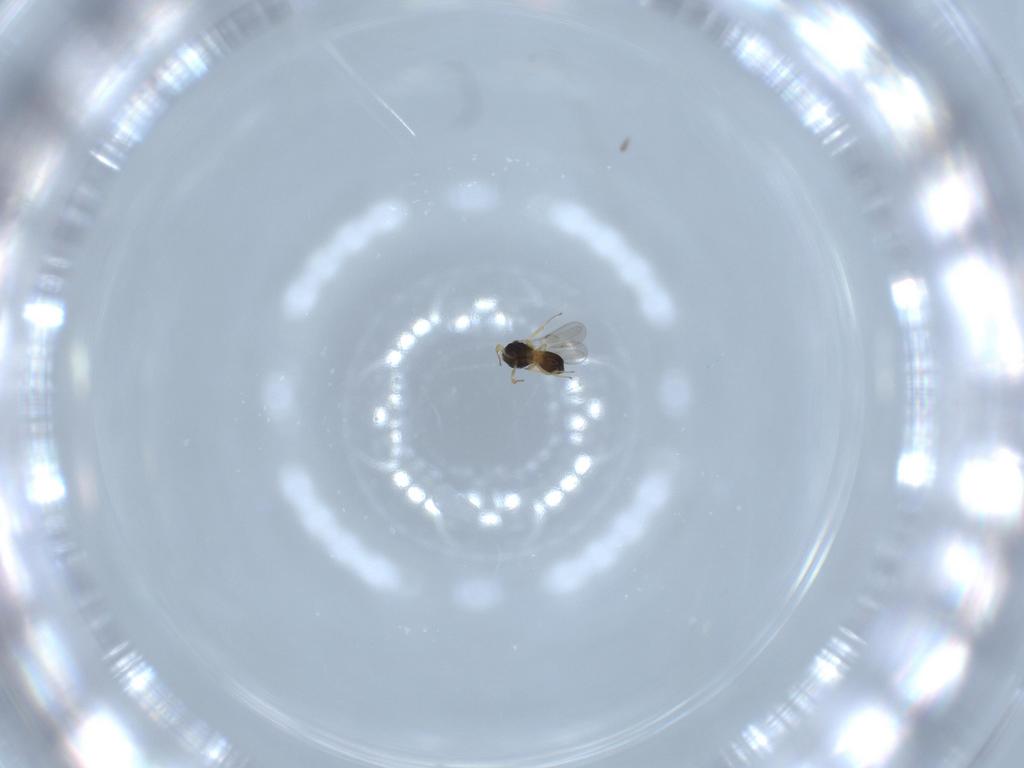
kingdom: Animalia
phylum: Arthropoda
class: Insecta
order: Hymenoptera
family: Scelionidae
